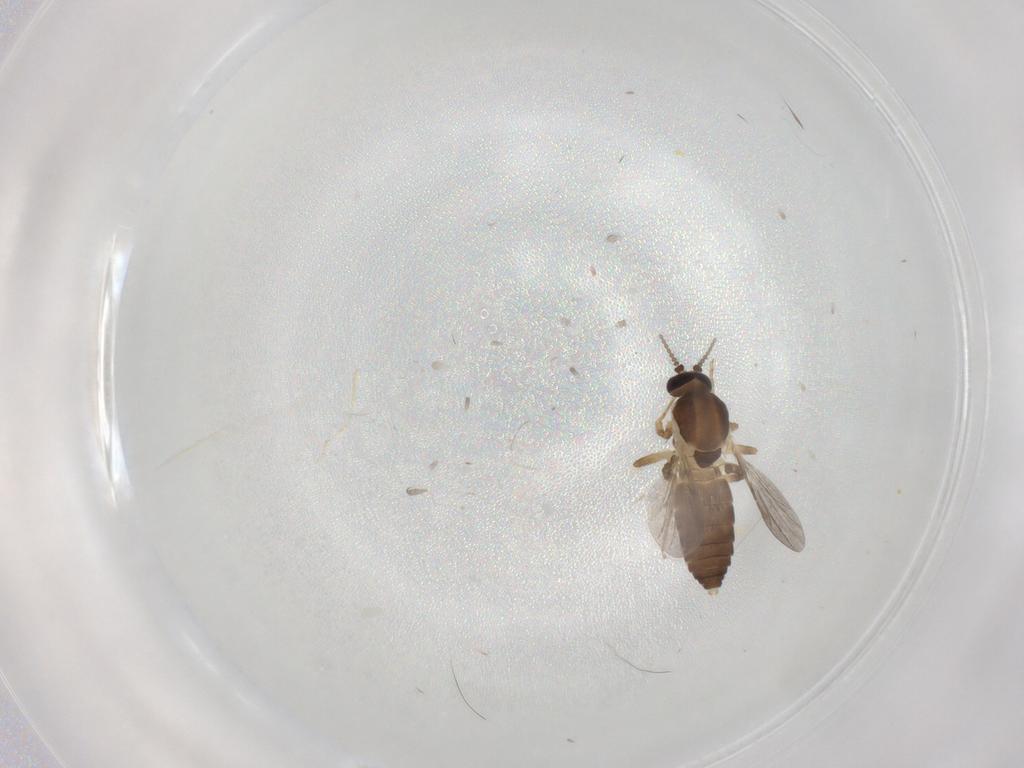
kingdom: Animalia
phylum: Arthropoda
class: Insecta
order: Diptera
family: Ceratopogonidae
